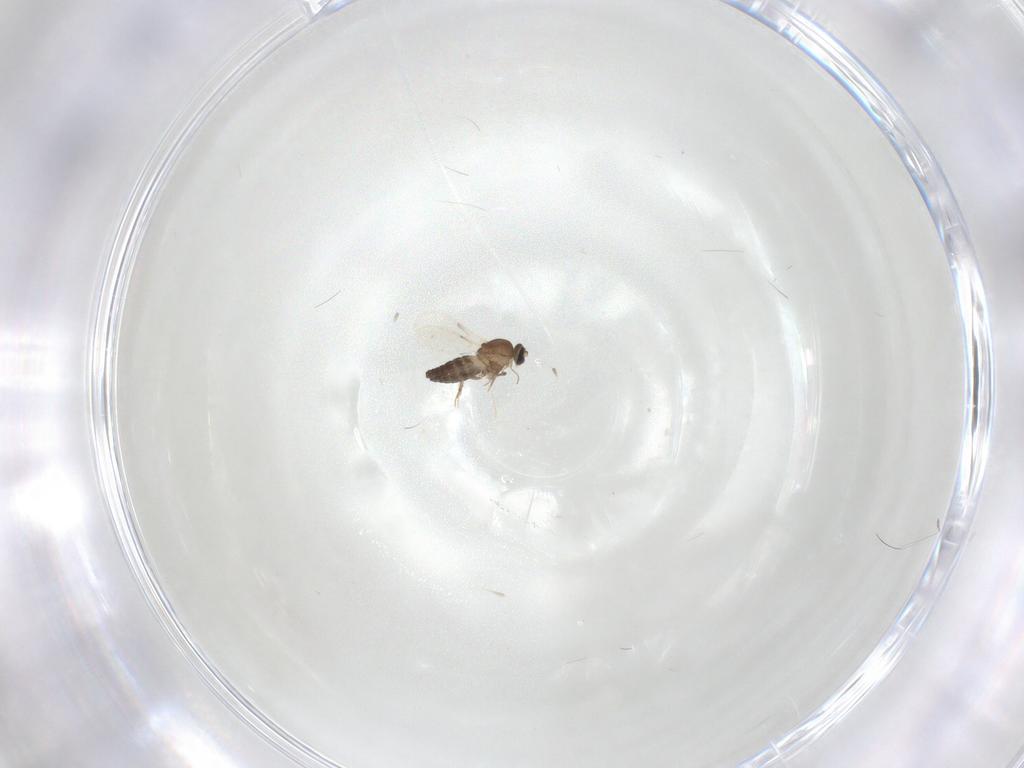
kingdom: Animalia
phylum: Arthropoda
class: Insecta
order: Diptera
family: Ceratopogonidae
